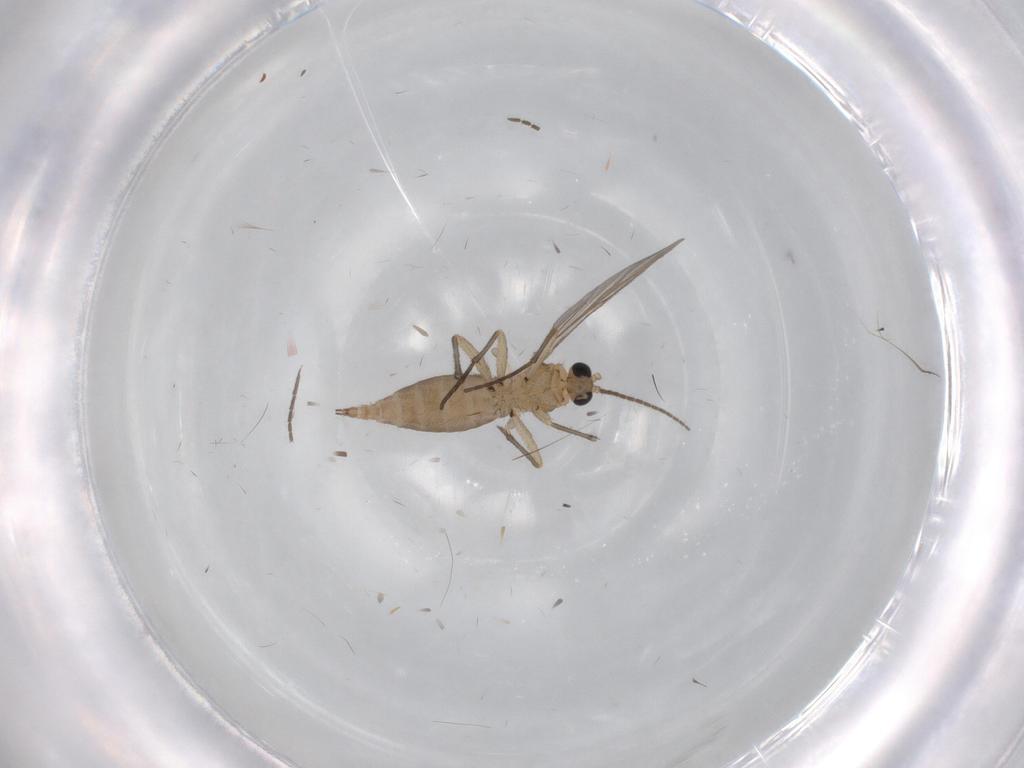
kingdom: Animalia
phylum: Arthropoda
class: Insecta
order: Diptera
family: Sciaridae
